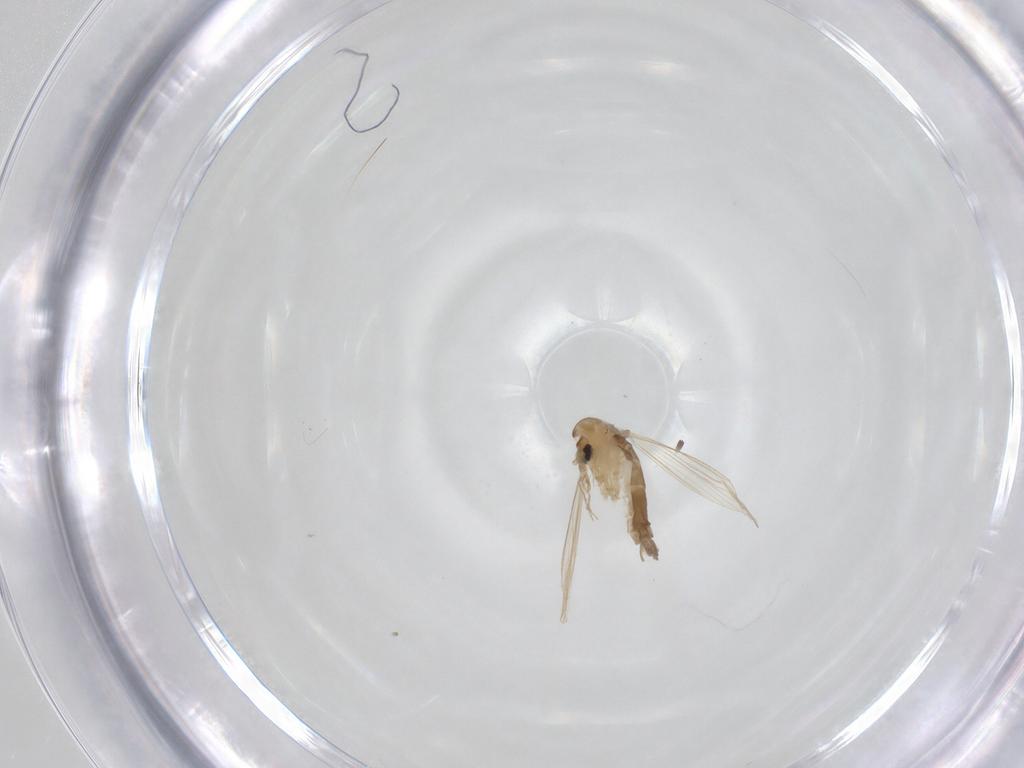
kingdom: Animalia
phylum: Arthropoda
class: Insecta
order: Diptera
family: Psychodidae
